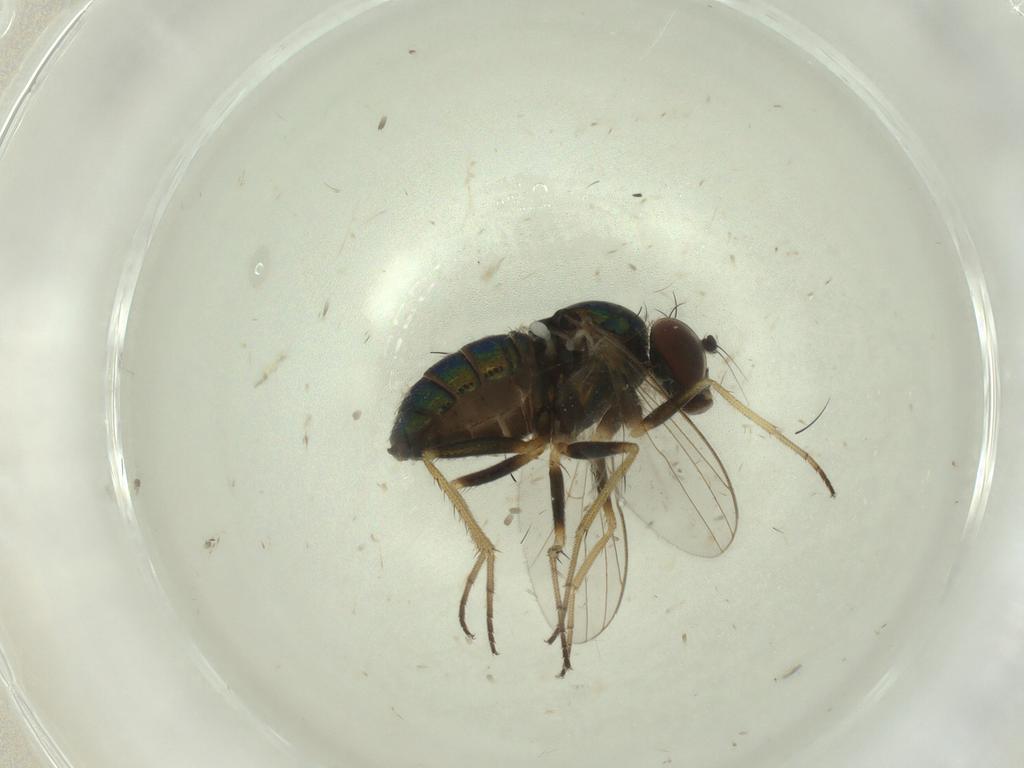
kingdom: Animalia
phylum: Arthropoda
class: Insecta
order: Diptera
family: Dolichopodidae
